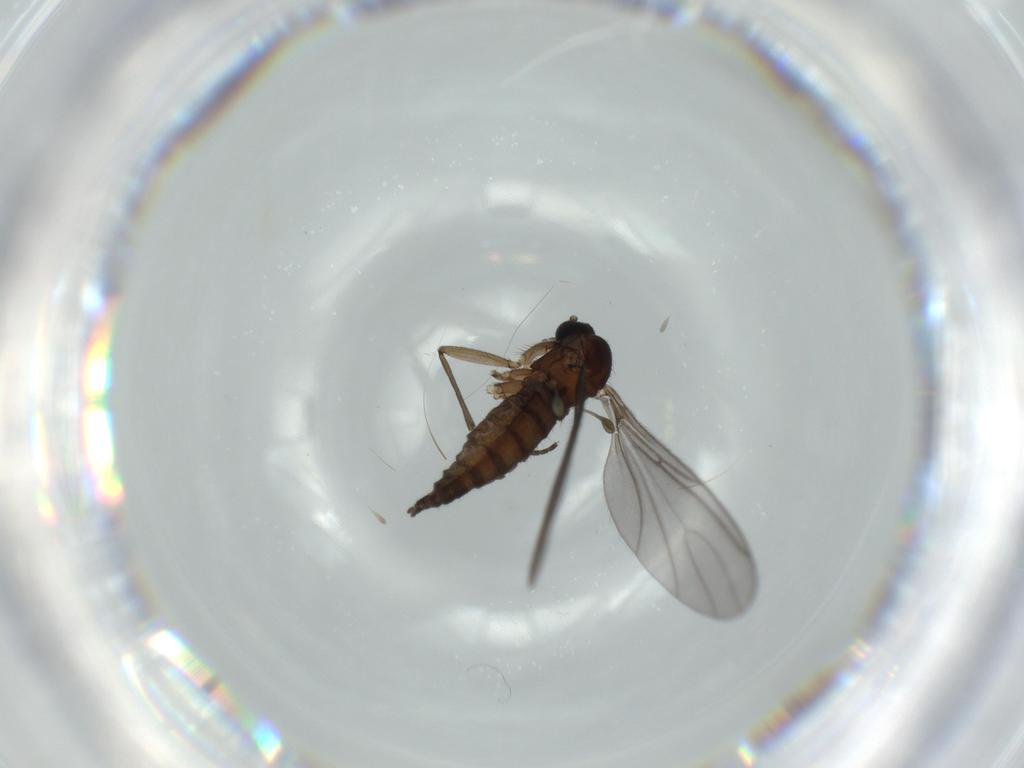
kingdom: Animalia
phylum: Arthropoda
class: Insecta
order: Diptera
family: Sciaridae
